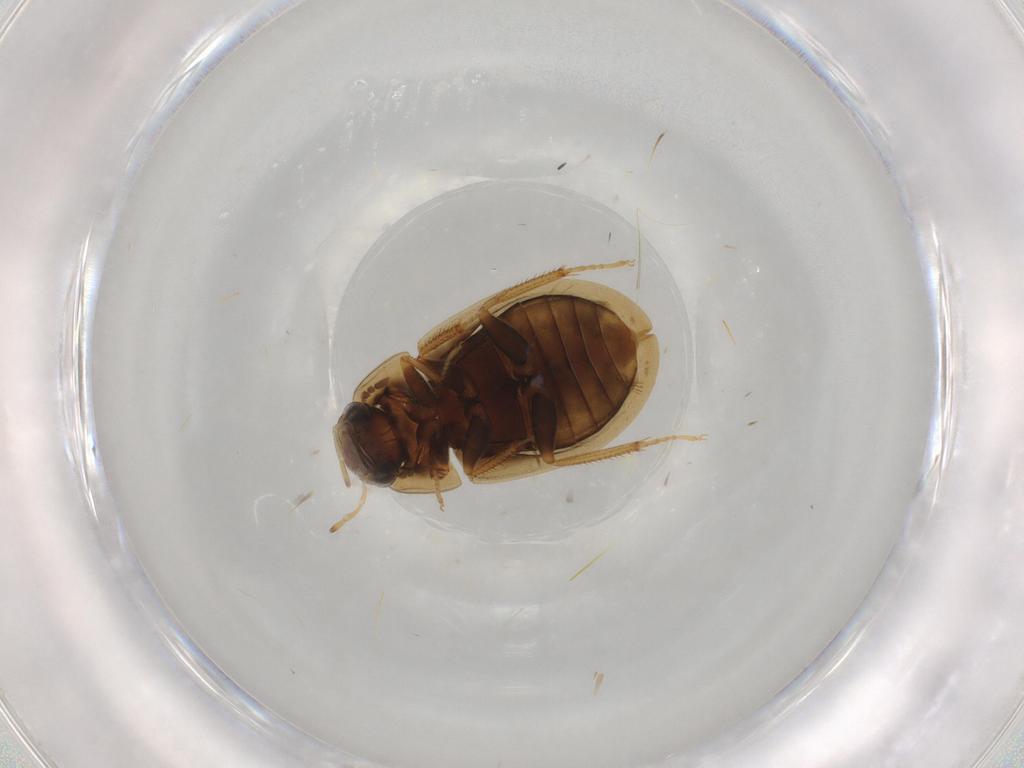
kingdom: Animalia
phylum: Arthropoda
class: Insecta
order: Coleoptera
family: Hydrophilidae
